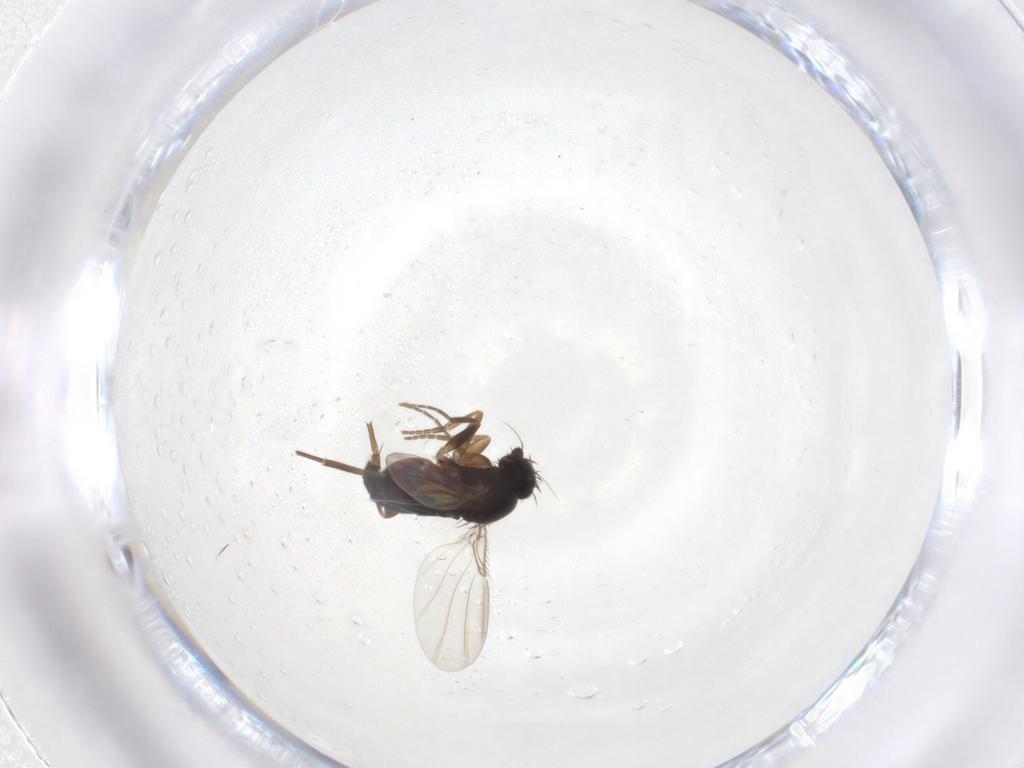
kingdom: Animalia
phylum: Arthropoda
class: Insecta
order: Diptera
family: Phoridae
